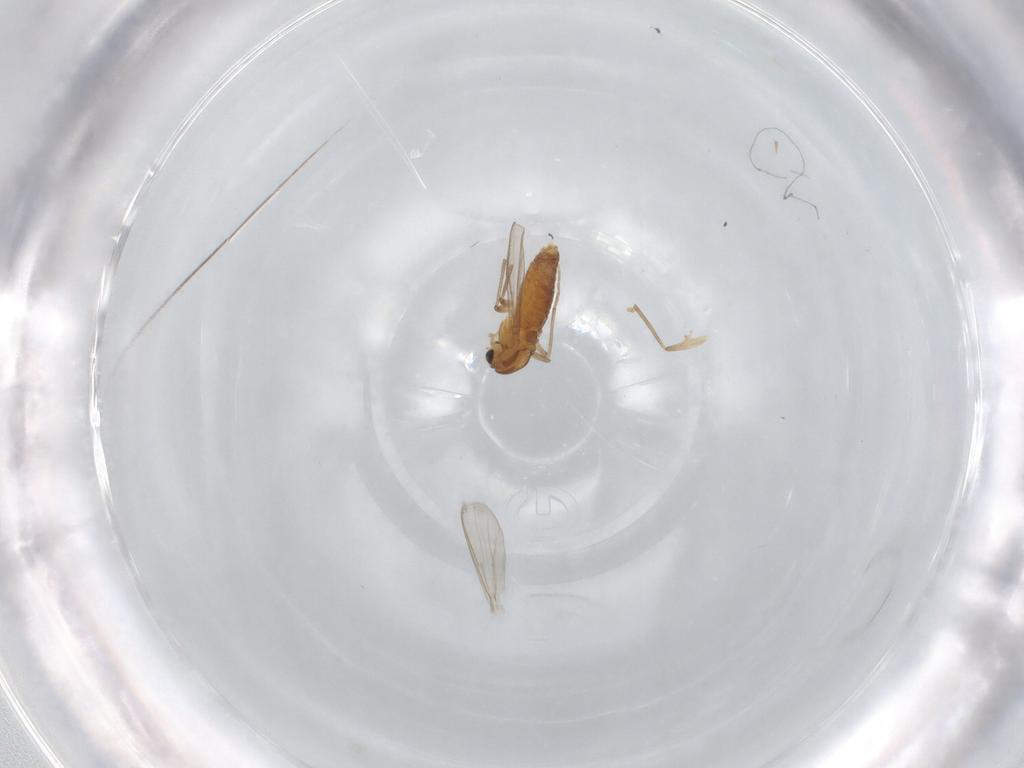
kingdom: Animalia
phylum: Arthropoda
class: Insecta
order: Diptera
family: Chironomidae
